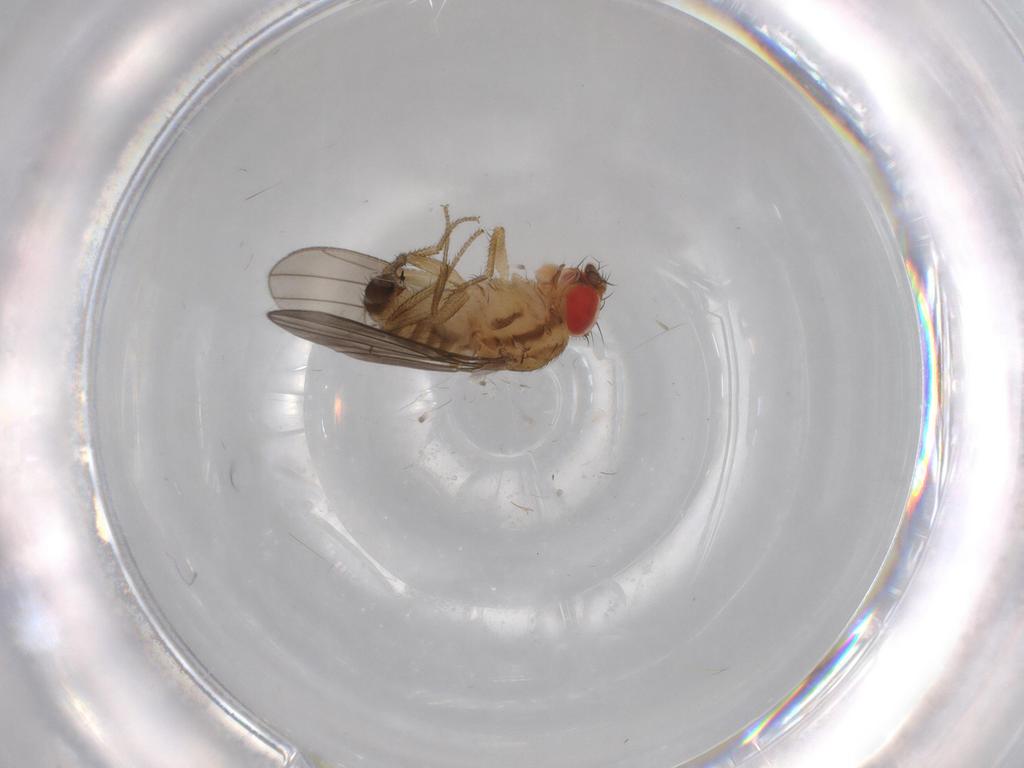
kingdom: Animalia
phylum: Arthropoda
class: Insecta
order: Diptera
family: Drosophilidae
